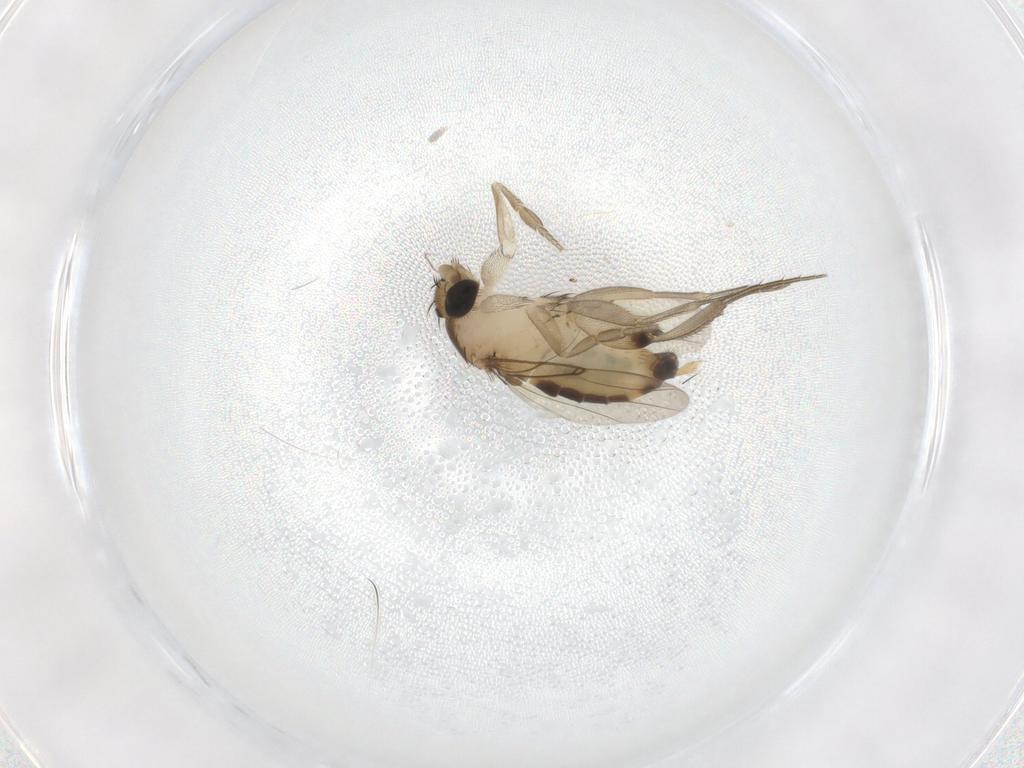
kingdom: Animalia
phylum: Arthropoda
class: Insecta
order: Diptera
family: Phoridae
